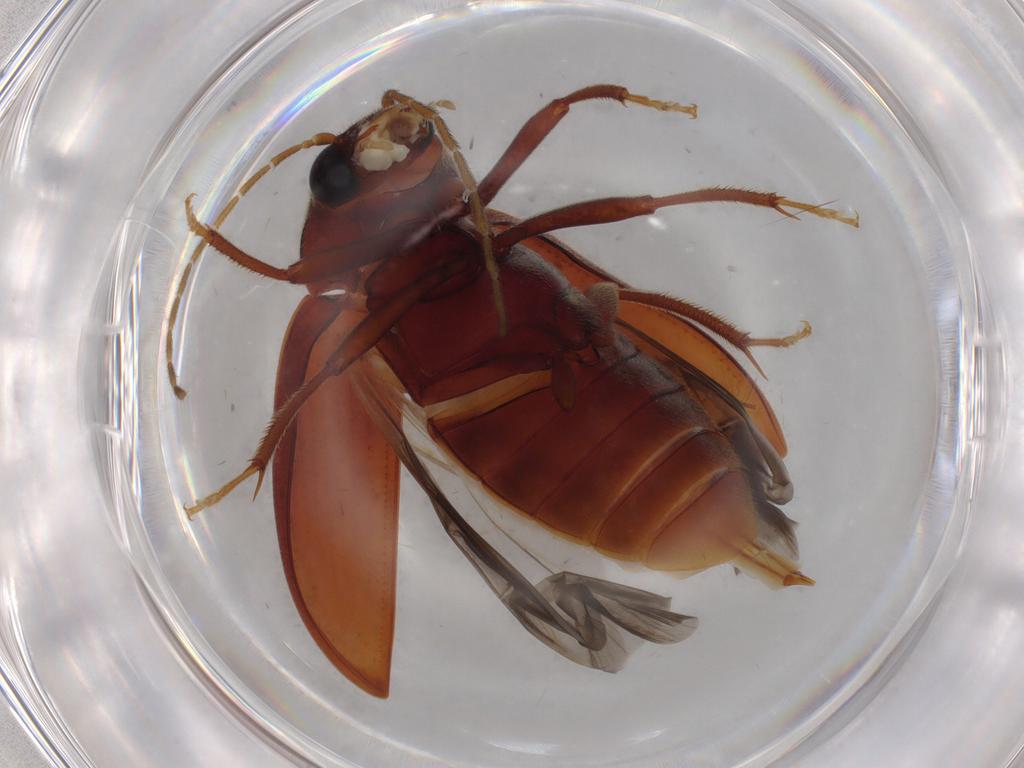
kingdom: Animalia
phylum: Arthropoda
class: Insecta
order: Coleoptera
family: Ptilodactylidae
